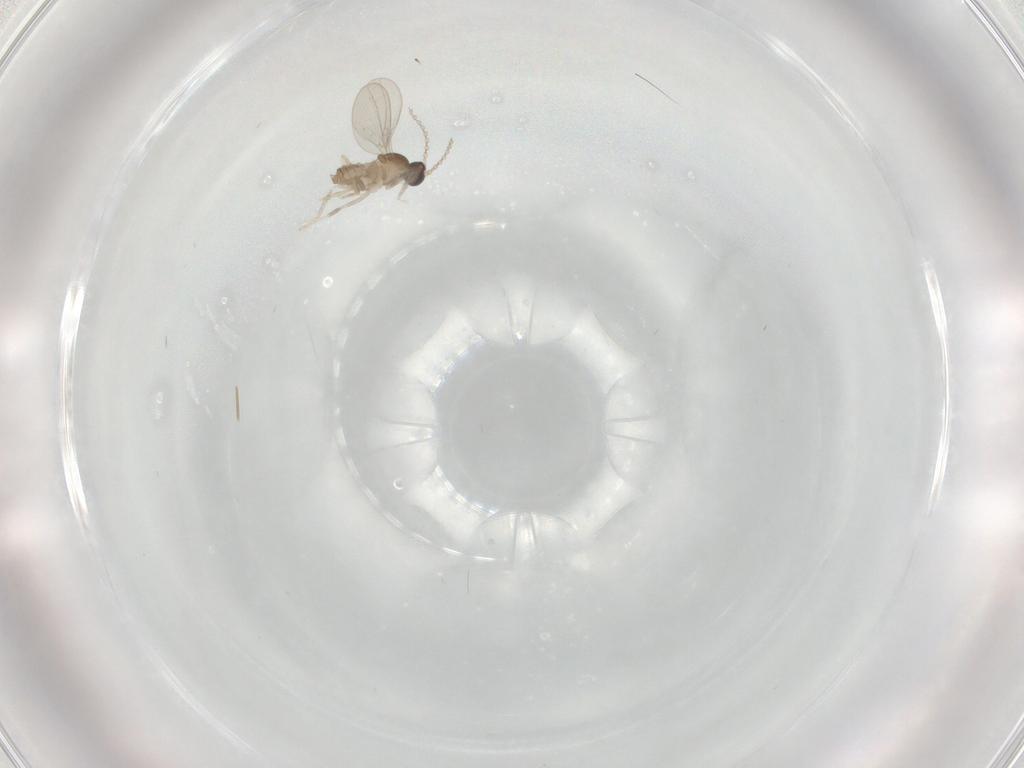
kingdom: Animalia
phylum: Arthropoda
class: Insecta
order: Diptera
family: Cecidomyiidae
